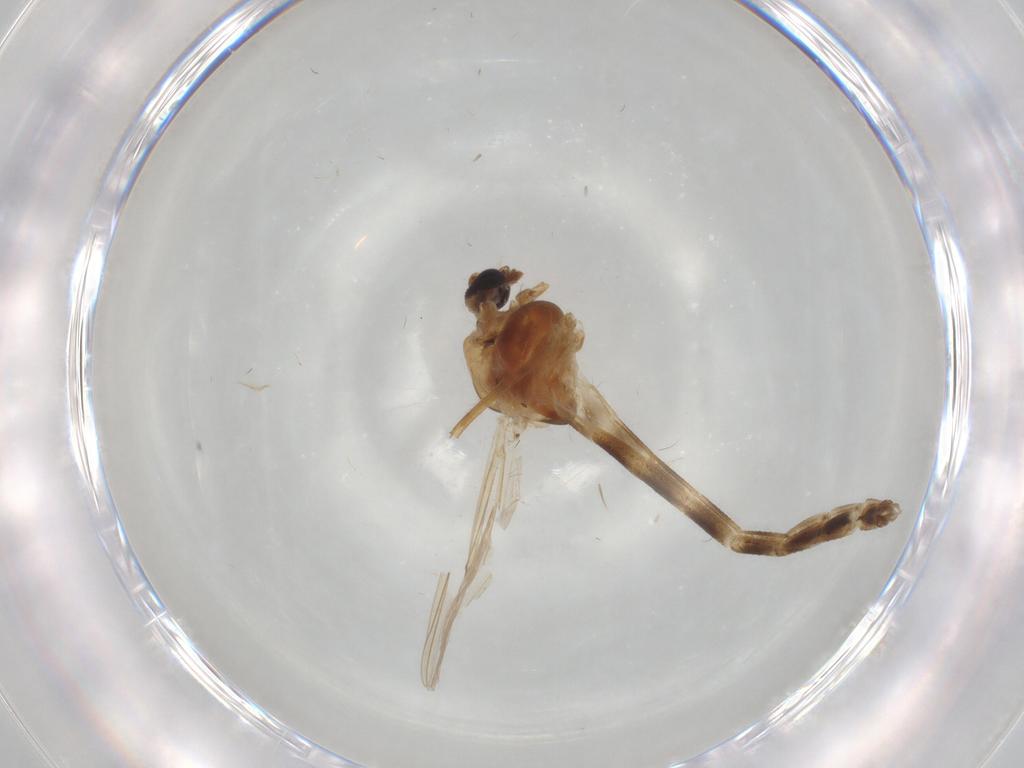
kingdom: Animalia
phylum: Arthropoda
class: Insecta
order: Diptera
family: Chironomidae
